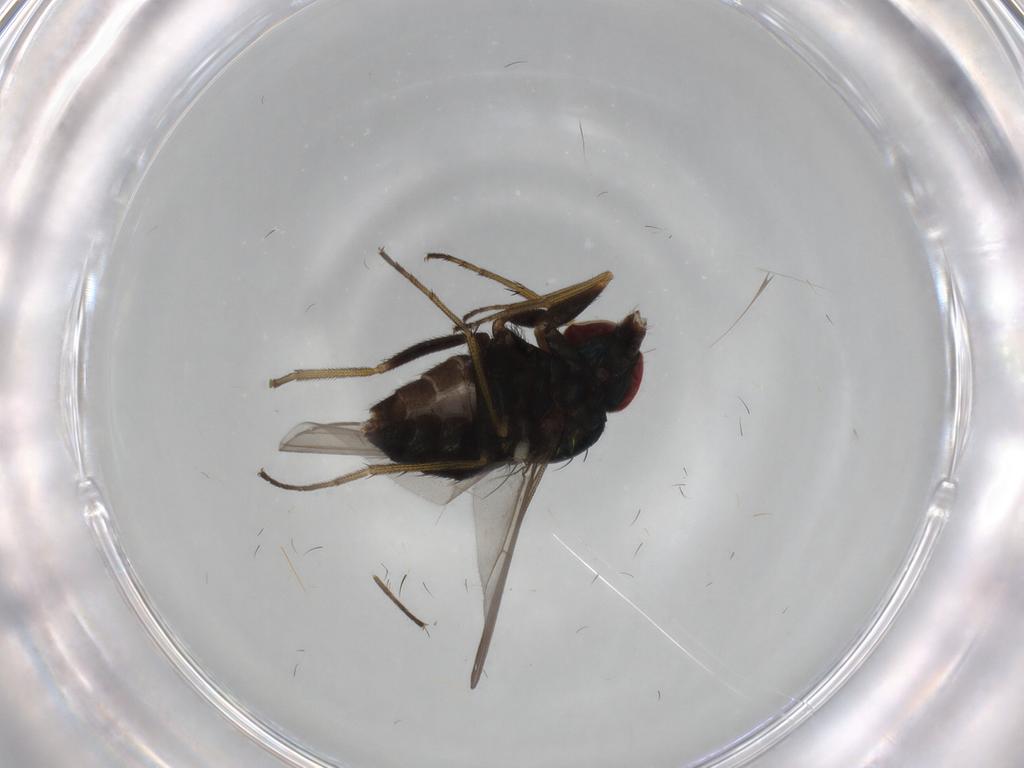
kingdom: Animalia
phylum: Arthropoda
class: Insecta
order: Diptera
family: Dolichopodidae
